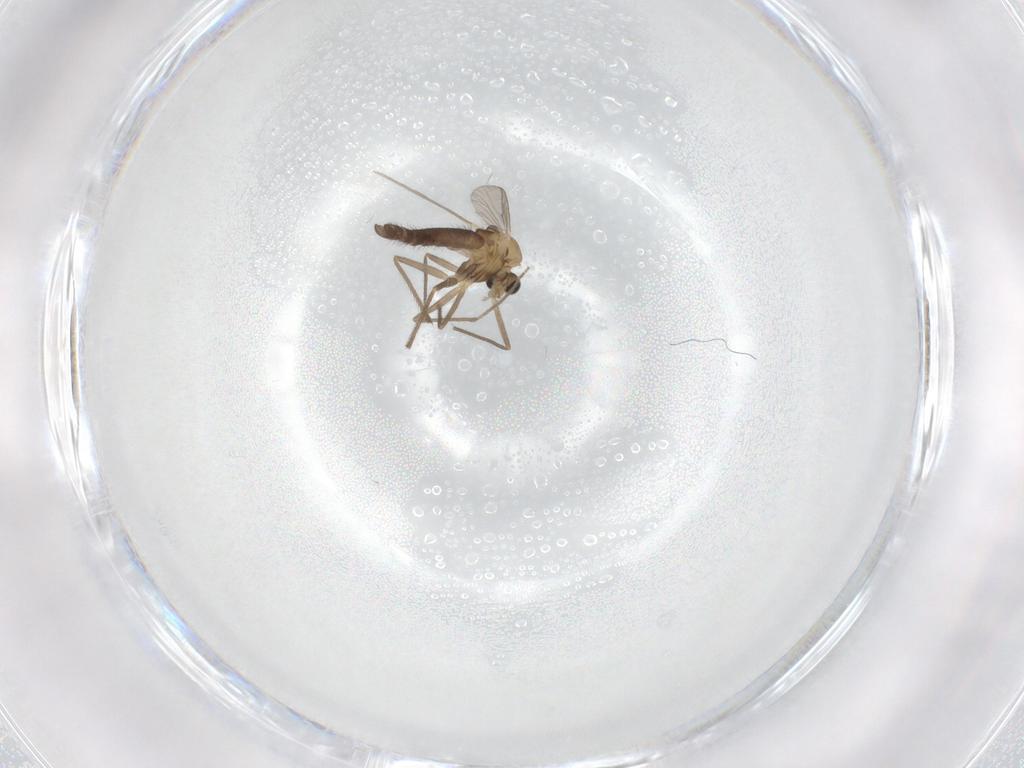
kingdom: Animalia
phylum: Arthropoda
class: Insecta
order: Diptera
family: Chironomidae
